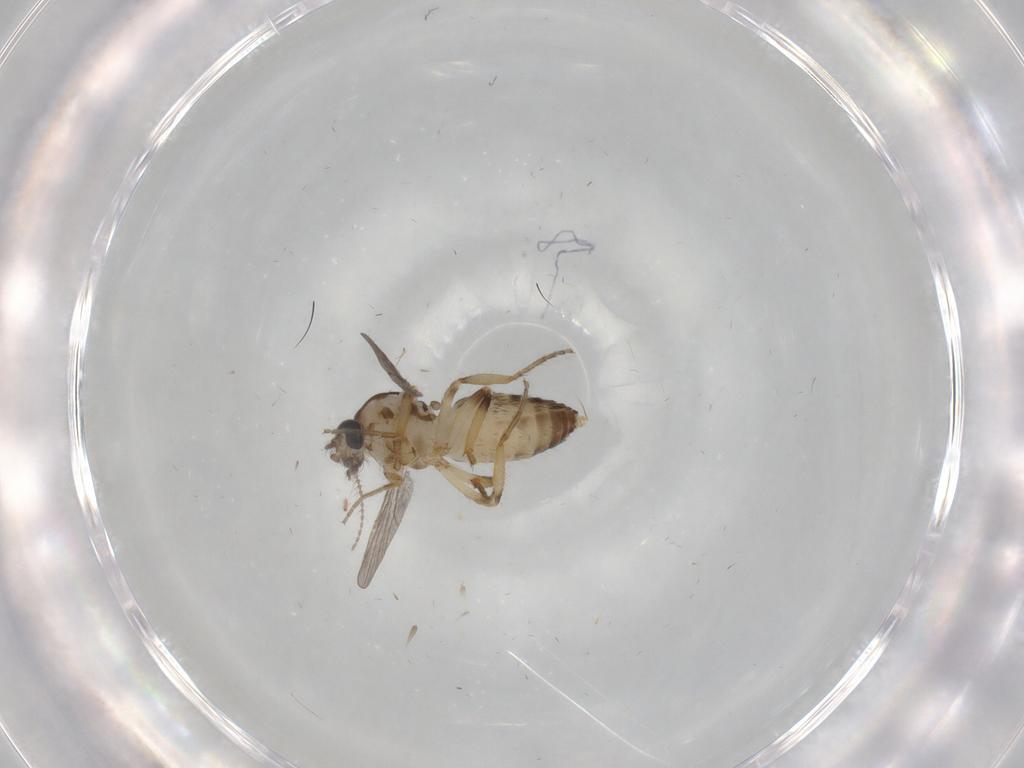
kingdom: Animalia
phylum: Arthropoda
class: Insecta
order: Diptera
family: Ceratopogonidae
